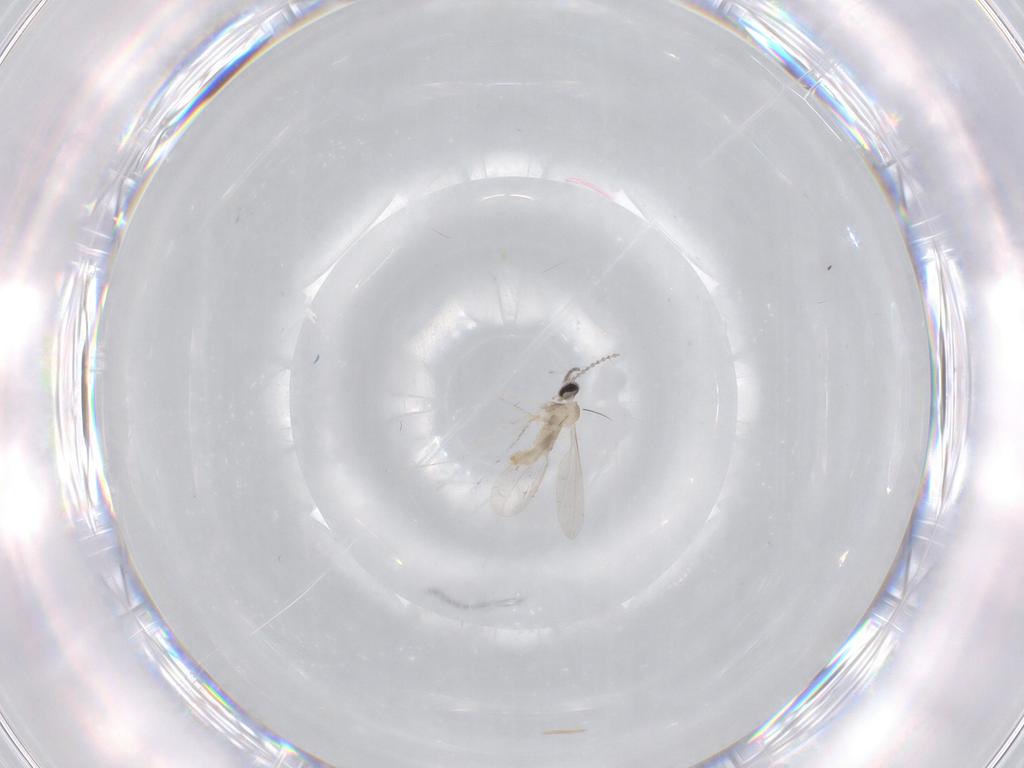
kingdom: Animalia
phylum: Arthropoda
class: Insecta
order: Diptera
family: Cecidomyiidae
